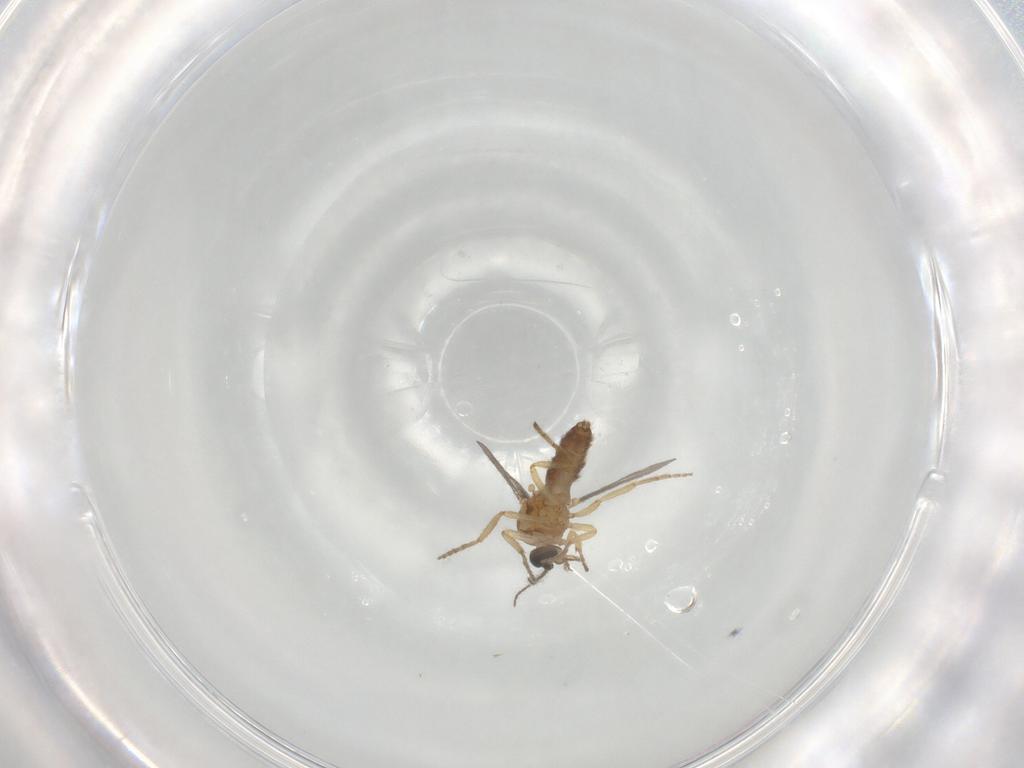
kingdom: Animalia
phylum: Arthropoda
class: Insecta
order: Diptera
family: Ceratopogonidae
